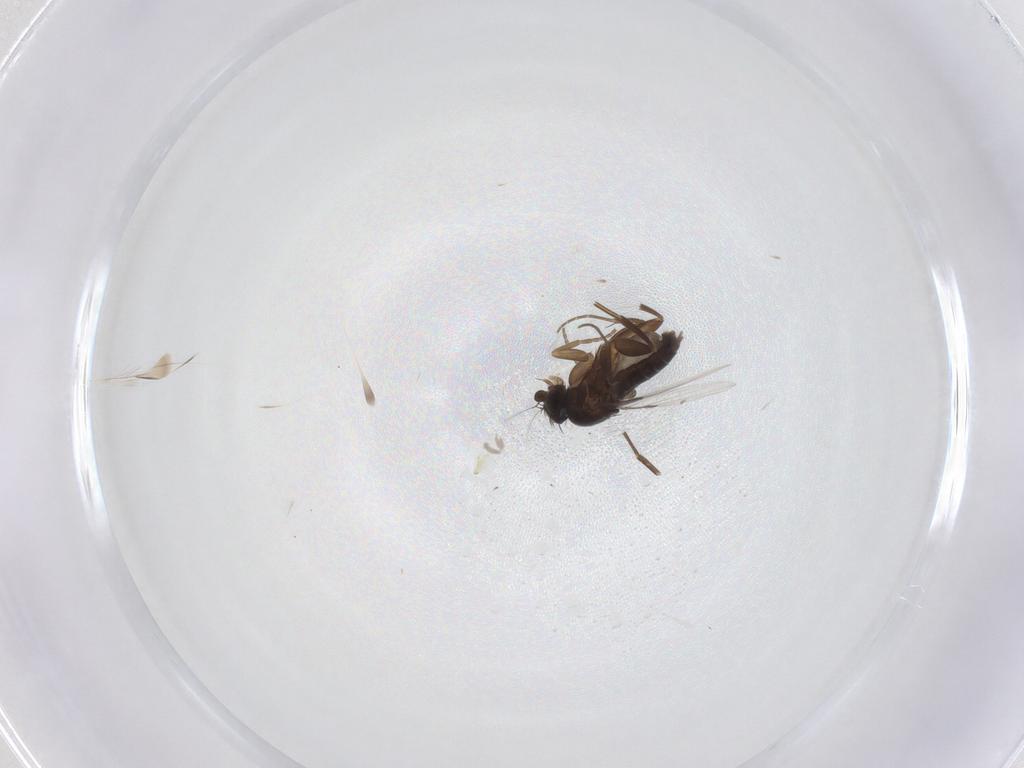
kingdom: Animalia
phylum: Arthropoda
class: Insecta
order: Diptera
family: Phoridae
